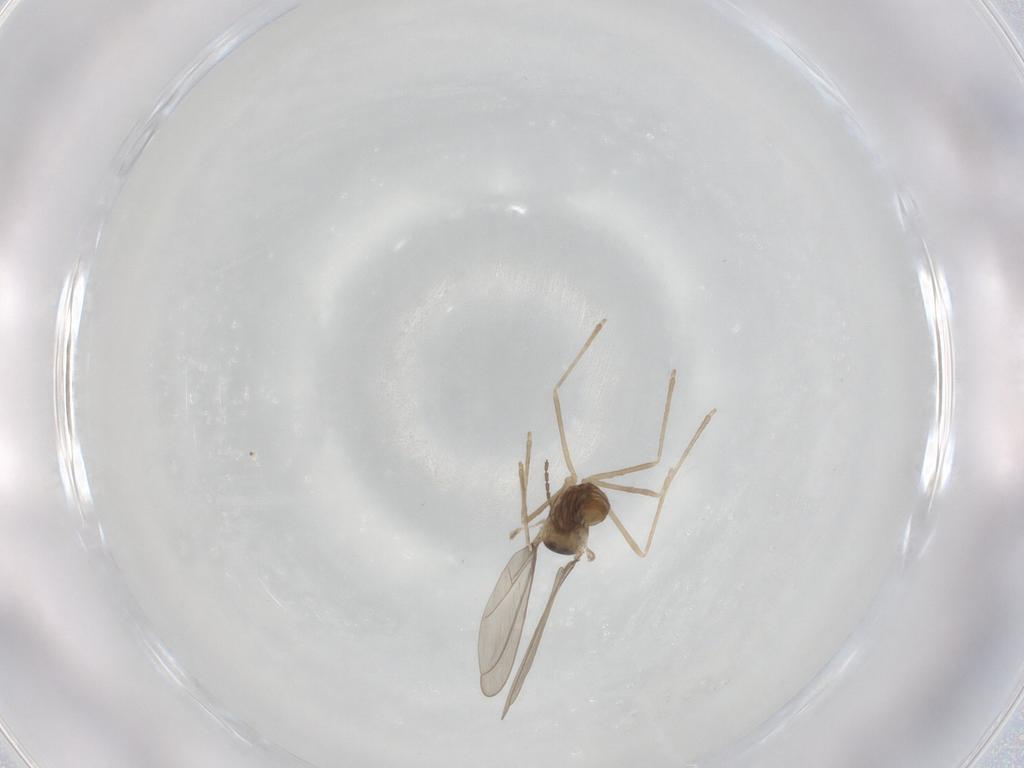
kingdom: Animalia
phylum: Arthropoda
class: Insecta
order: Diptera
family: Cecidomyiidae
